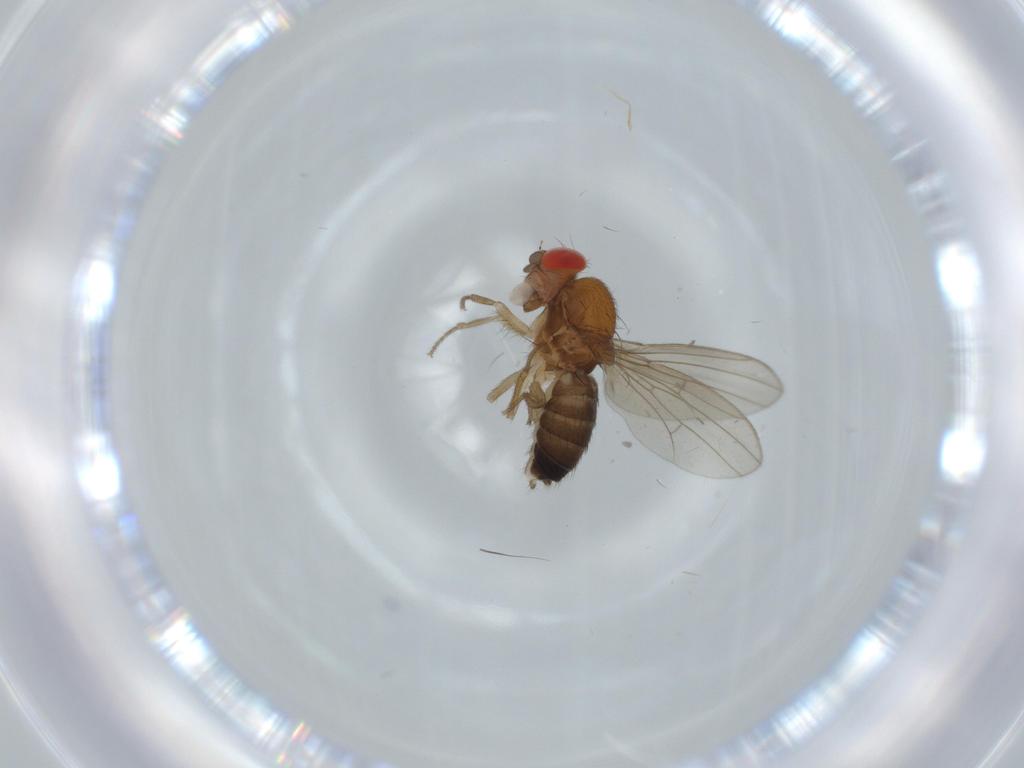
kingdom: Animalia
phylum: Arthropoda
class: Insecta
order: Diptera
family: Drosophilidae
